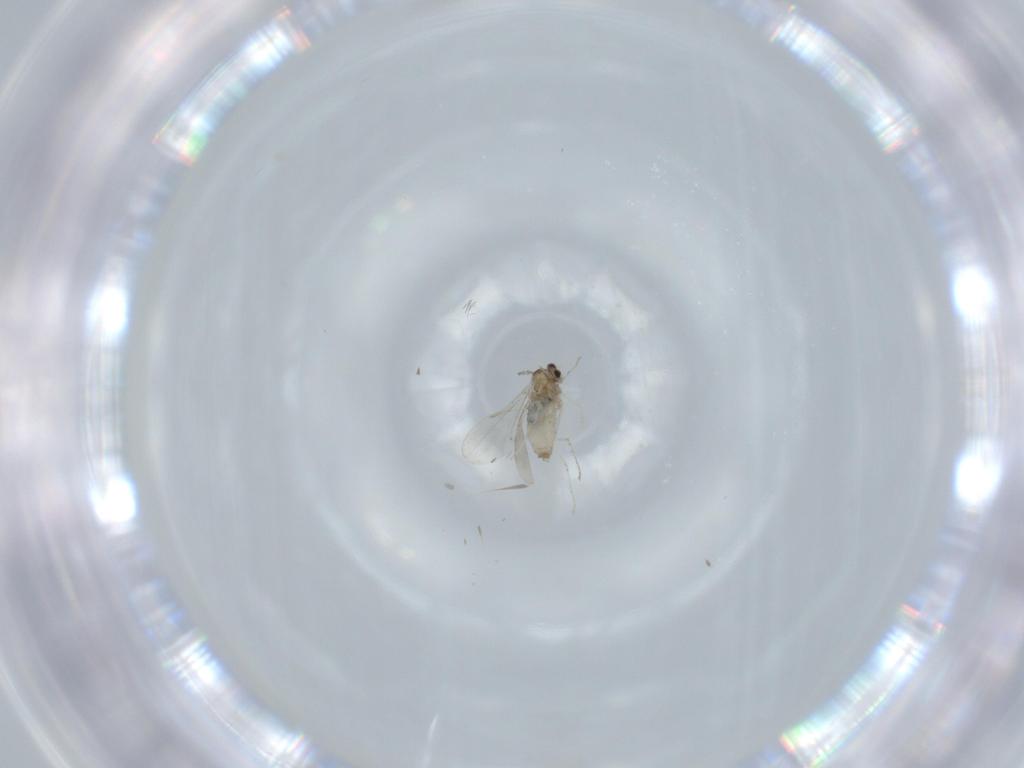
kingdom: Animalia
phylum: Arthropoda
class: Insecta
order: Diptera
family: Cecidomyiidae
